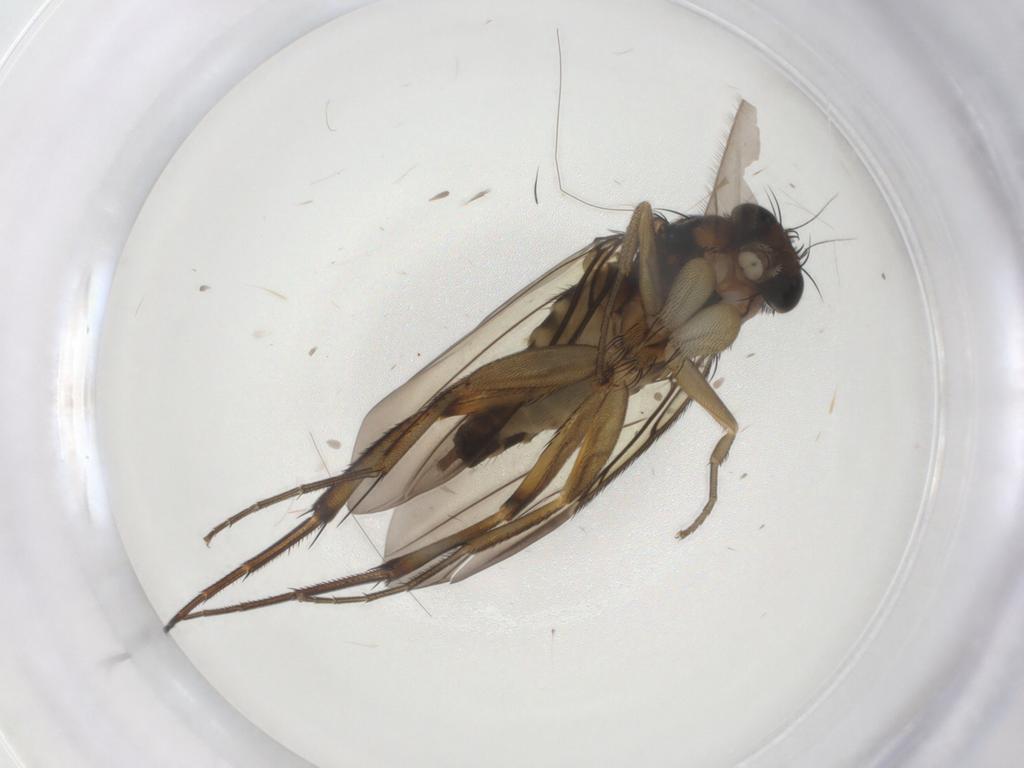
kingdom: Animalia
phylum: Arthropoda
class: Insecta
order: Diptera
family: Phoridae
